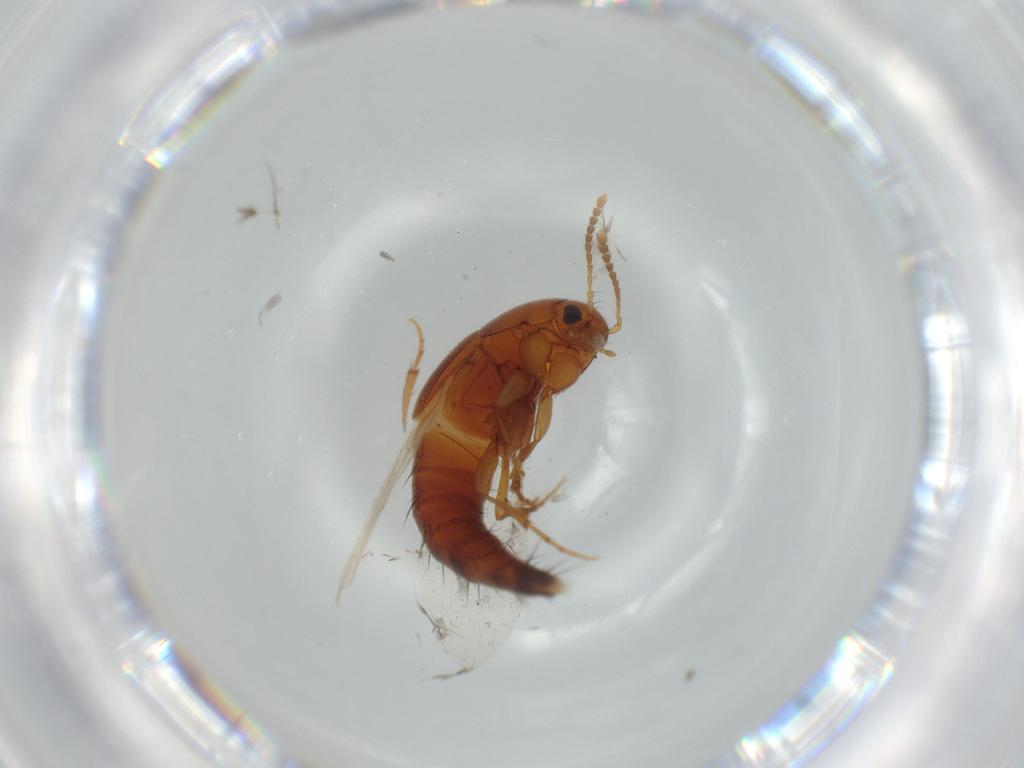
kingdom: Animalia
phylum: Arthropoda
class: Insecta
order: Coleoptera
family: Staphylinidae
